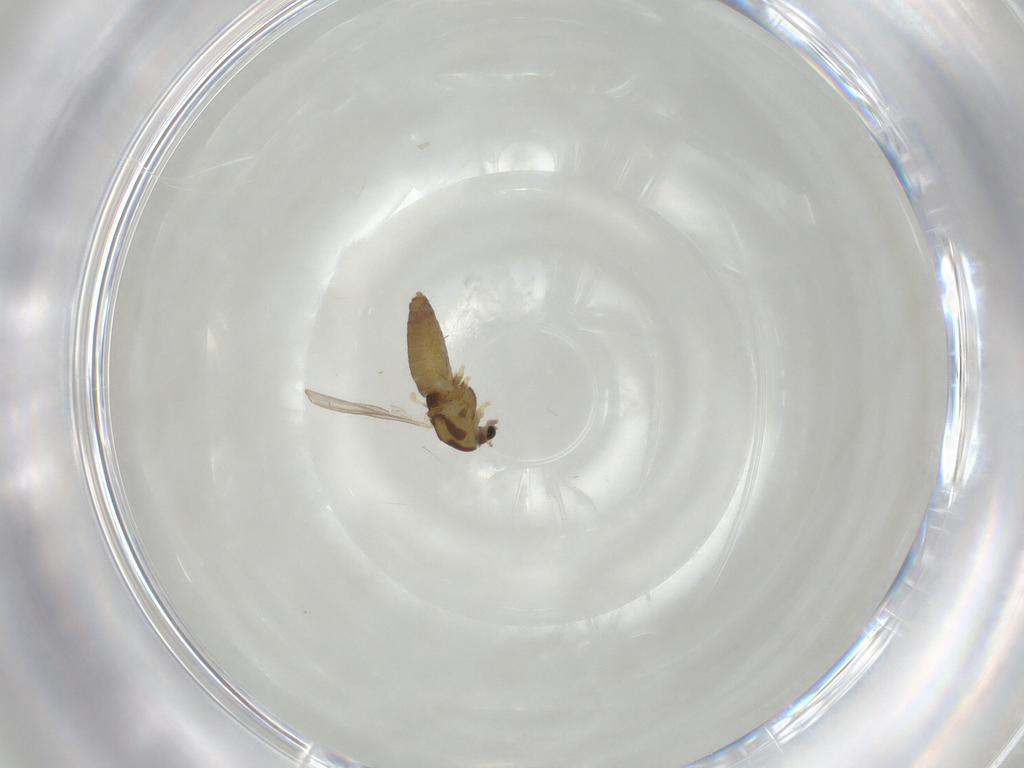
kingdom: Animalia
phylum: Arthropoda
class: Insecta
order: Diptera
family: Chironomidae
